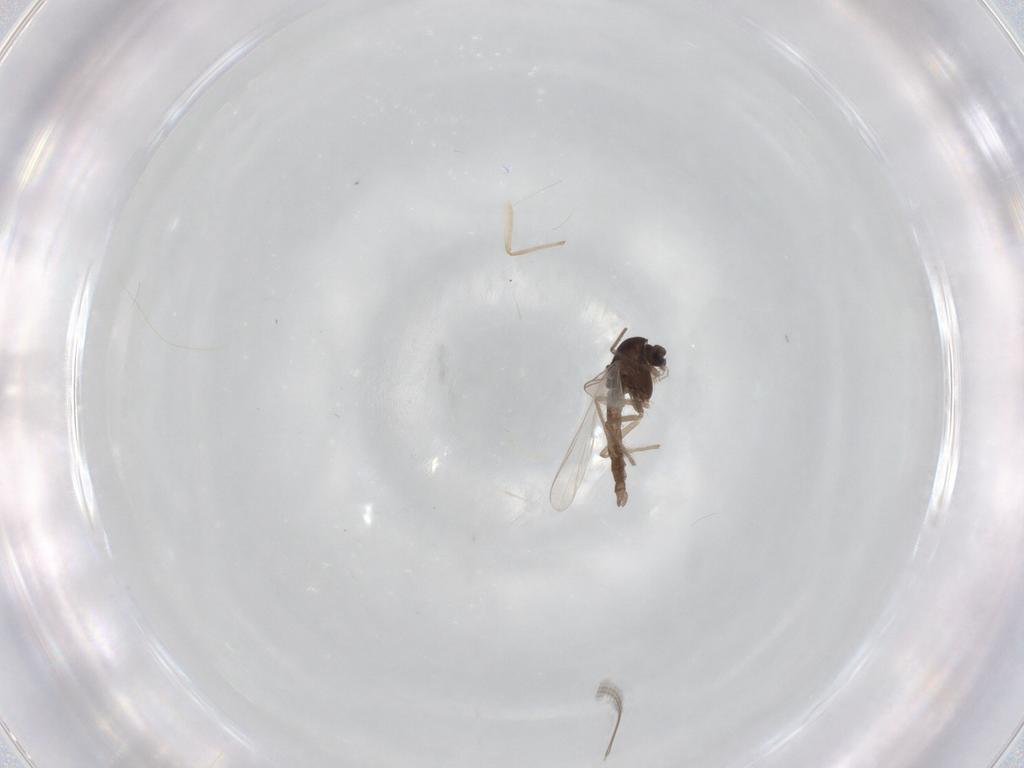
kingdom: Animalia
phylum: Arthropoda
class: Insecta
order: Diptera
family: Chironomidae
